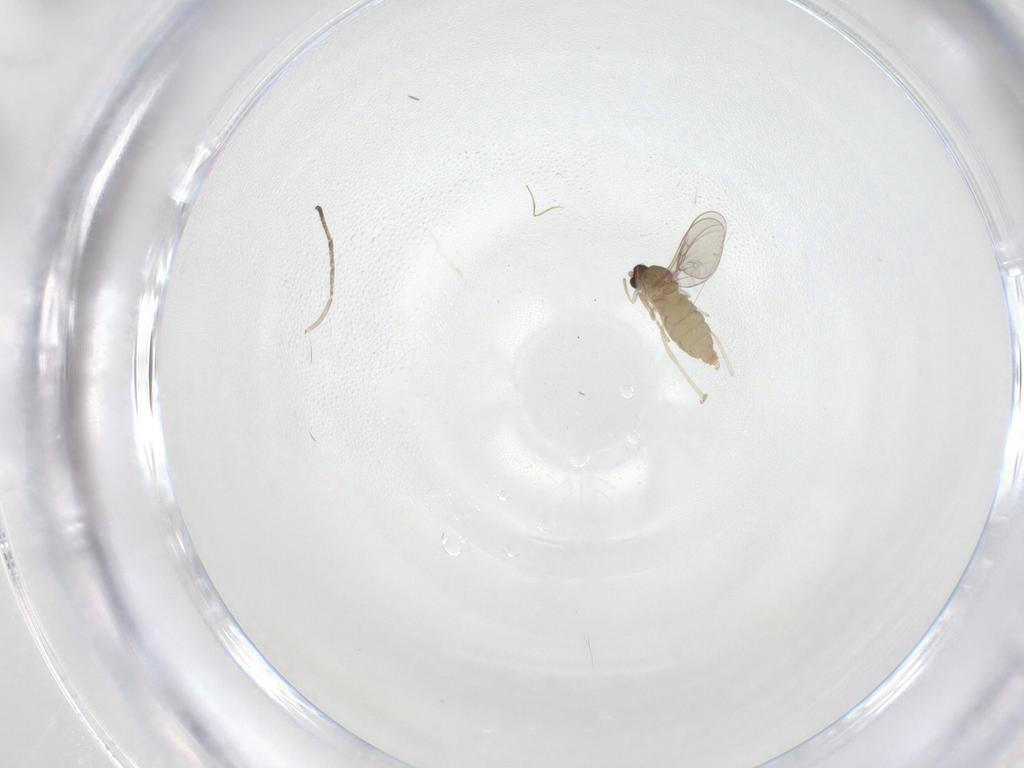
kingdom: Animalia
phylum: Arthropoda
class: Insecta
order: Diptera
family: Cecidomyiidae
